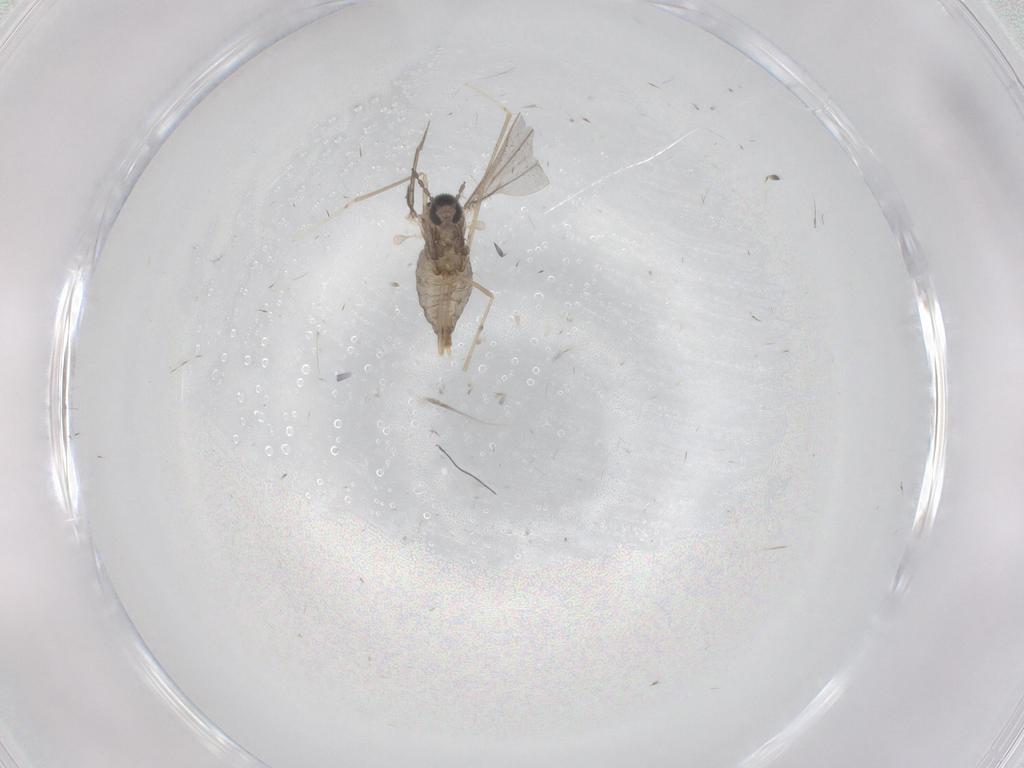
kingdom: Animalia
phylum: Arthropoda
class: Insecta
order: Diptera
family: Cecidomyiidae
